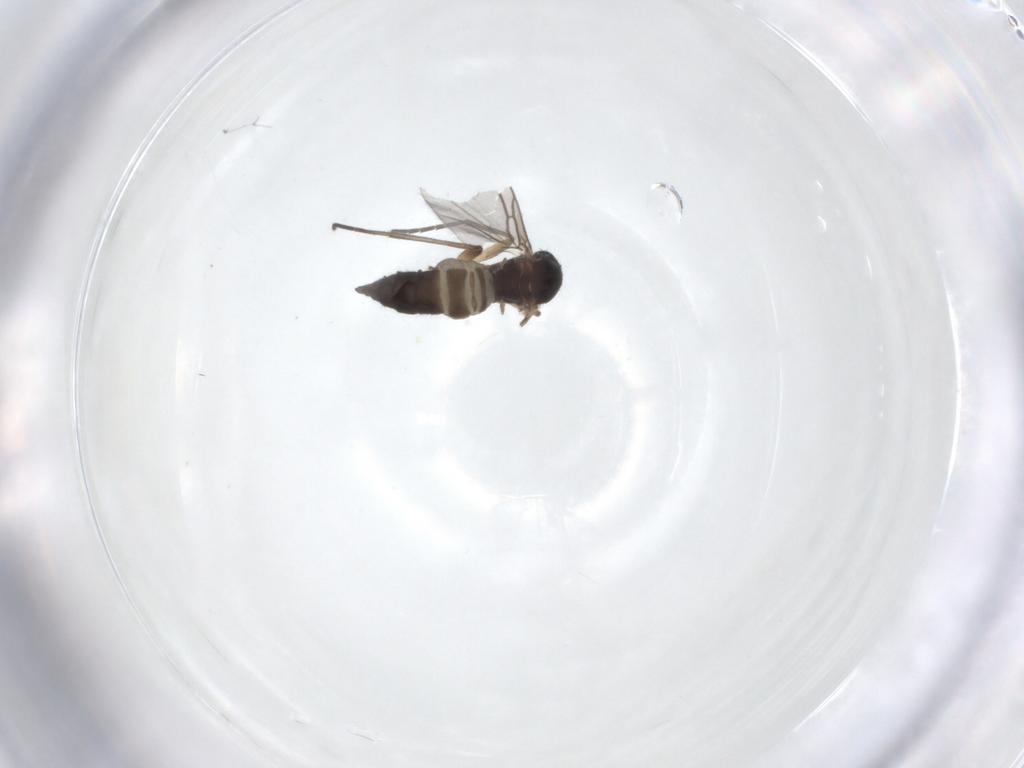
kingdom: Animalia
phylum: Arthropoda
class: Insecta
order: Diptera
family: Sciaridae
